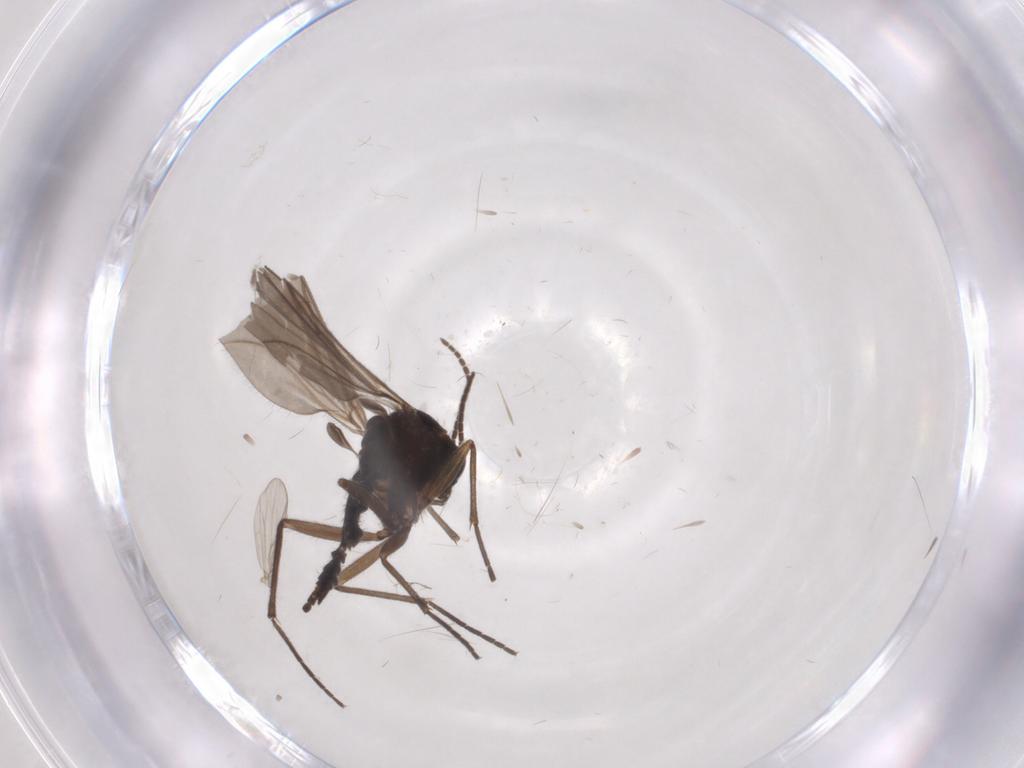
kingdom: Animalia
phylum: Arthropoda
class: Insecta
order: Diptera
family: Sciaridae
